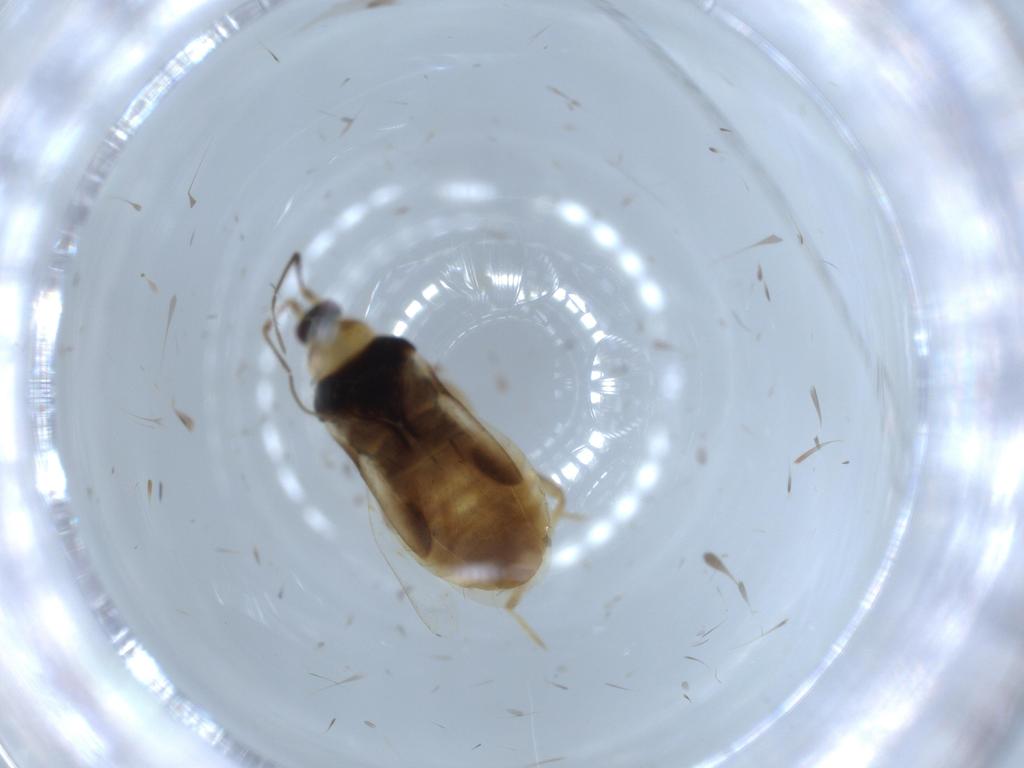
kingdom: Animalia
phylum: Arthropoda
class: Insecta
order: Hemiptera
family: Nabidae
